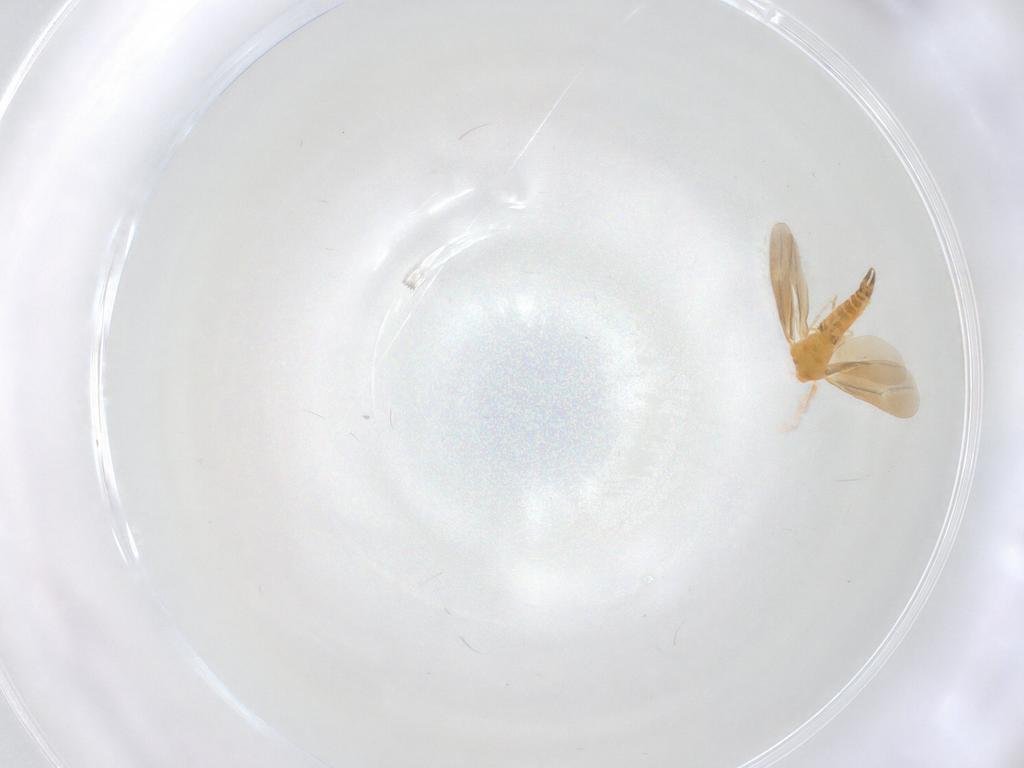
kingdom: Animalia
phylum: Arthropoda
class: Insecta
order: Hemiptera
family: Aleyrodidae
